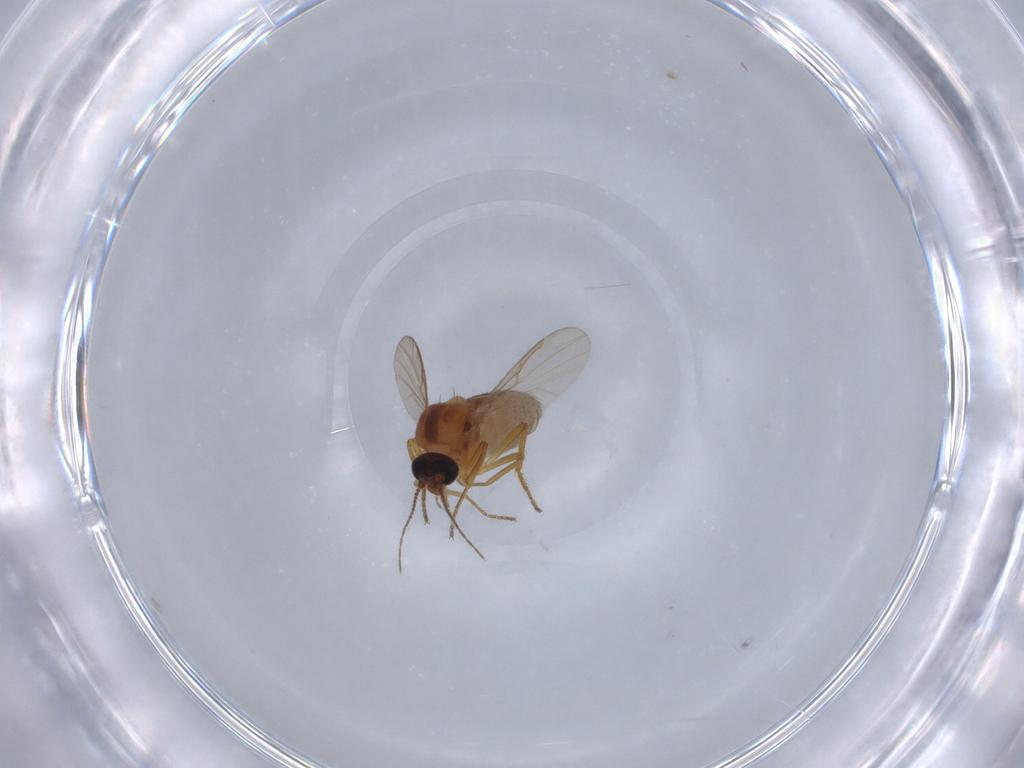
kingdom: Animalia
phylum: Arthropoda
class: Insecta
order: Diptera
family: Ceratopogonidae
